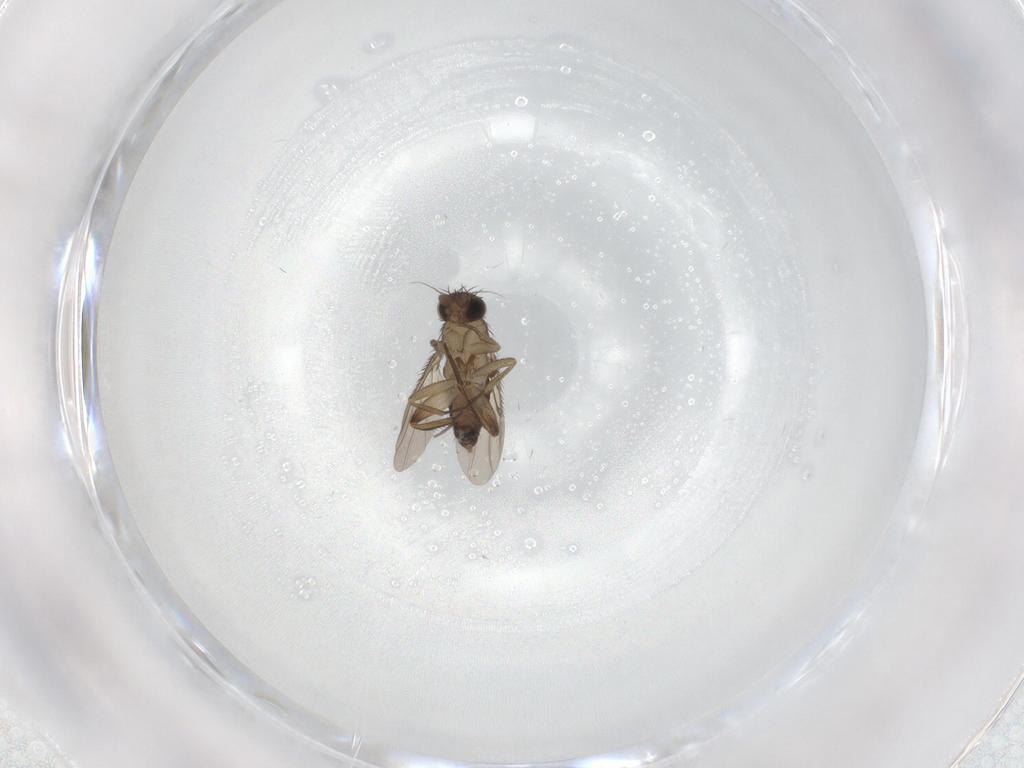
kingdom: Animalia
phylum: Arthropoda
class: Insecta
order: Diptera
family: Phoridae
